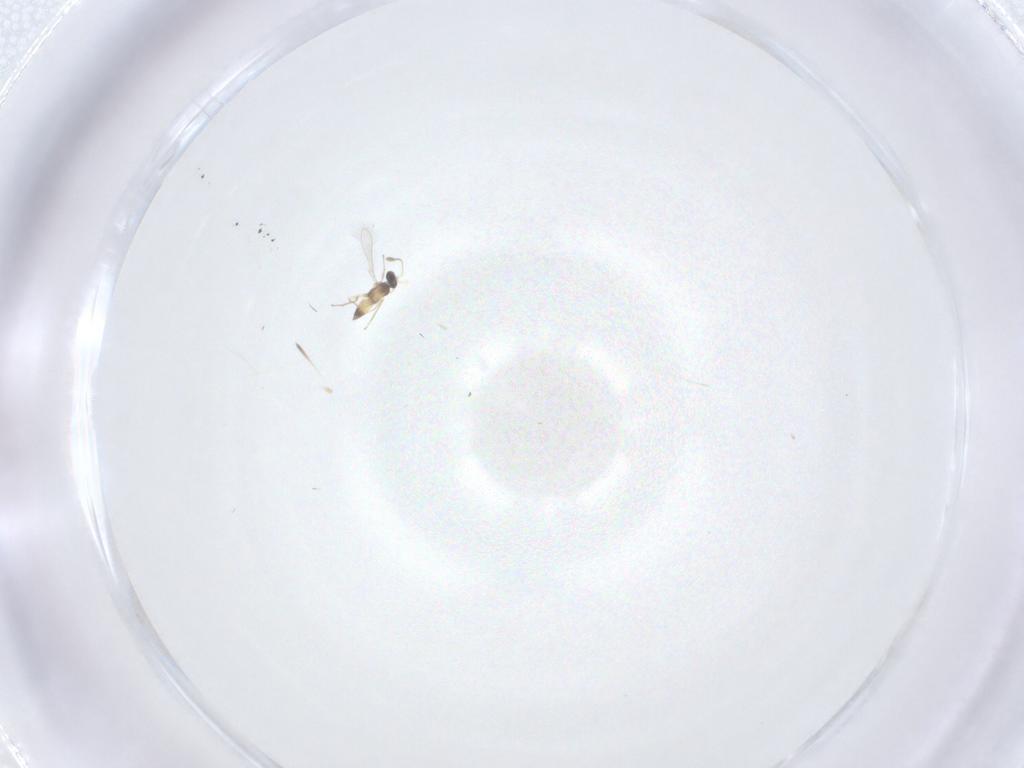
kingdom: Animalia
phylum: Arthropoda
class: Insecta
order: Hymenoptera
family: Mymaridae
